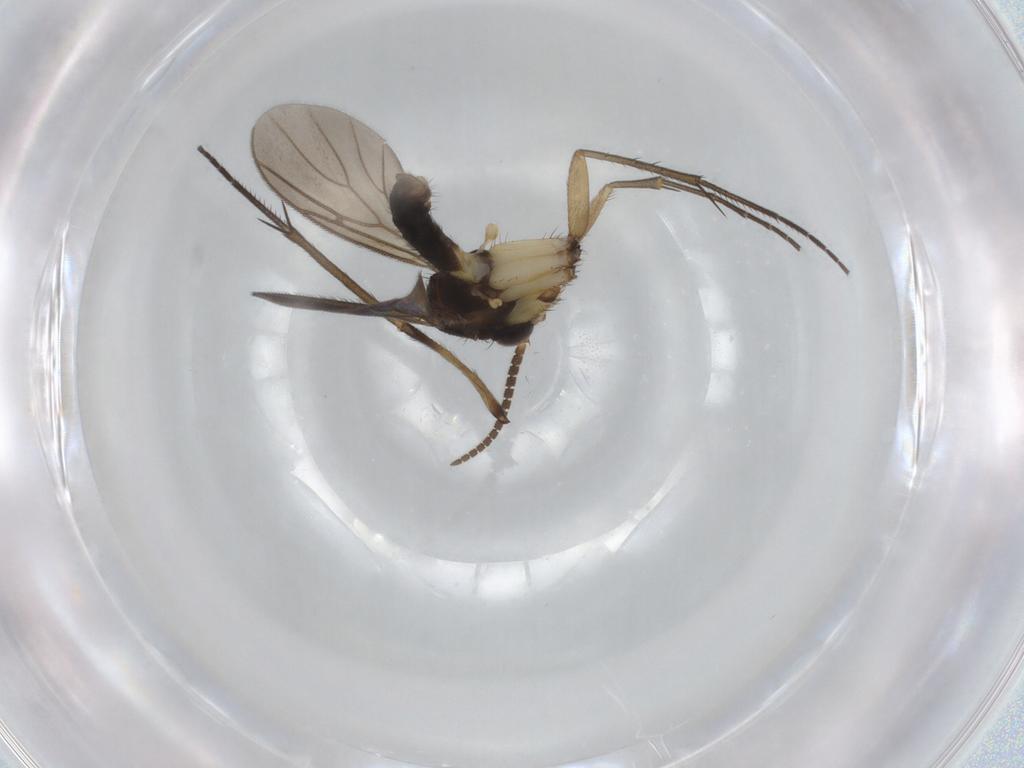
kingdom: Animalia
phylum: Arthropoda
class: Insecta
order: Diptera
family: Mycetophilidae
